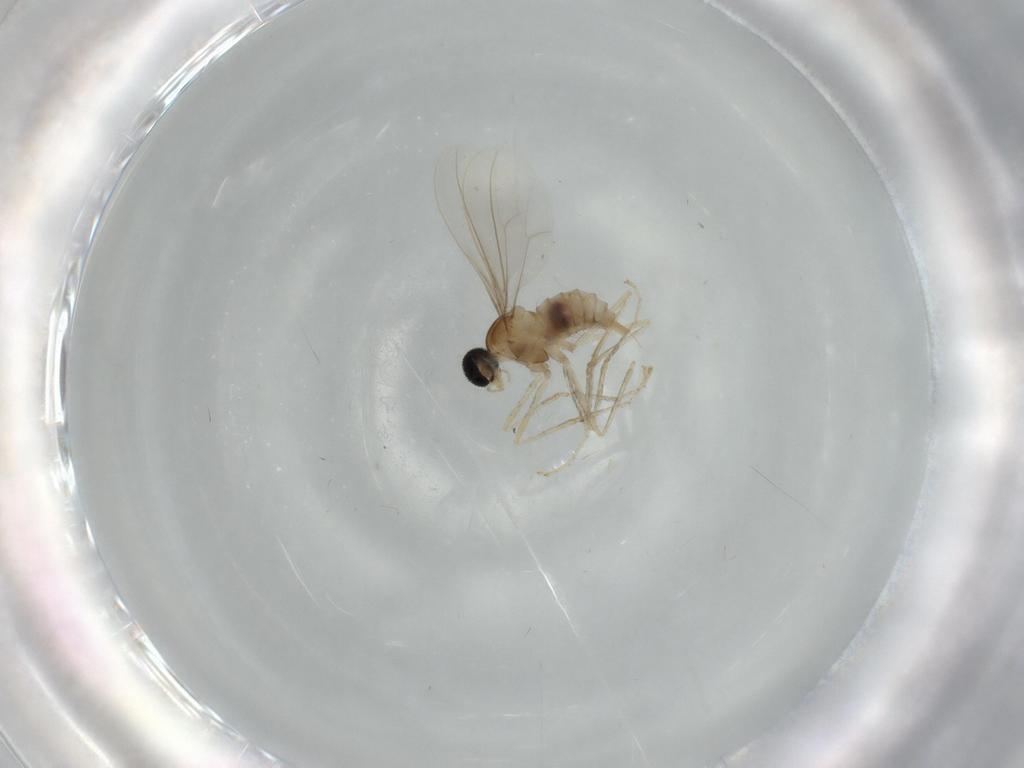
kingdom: Animalia
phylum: Arthropoda
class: Insecta
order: Diptera
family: Cecidomyiidae
